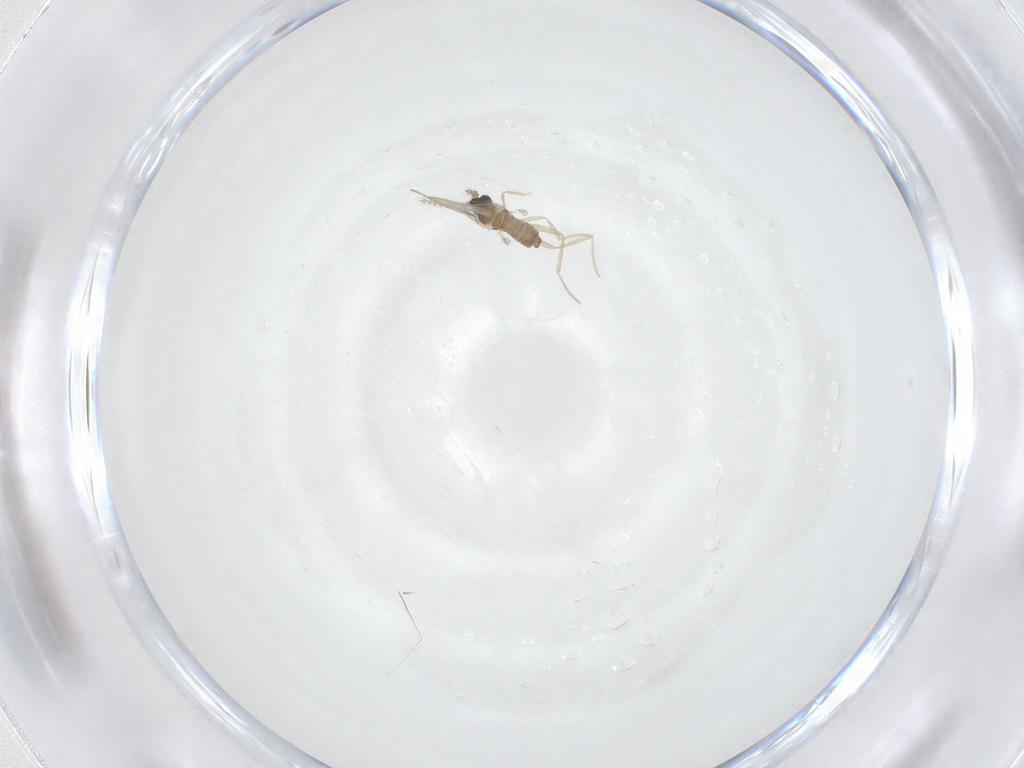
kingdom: Animalia
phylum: Arthropoda
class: Insecta
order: Diptera
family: Cecidomyiidae
